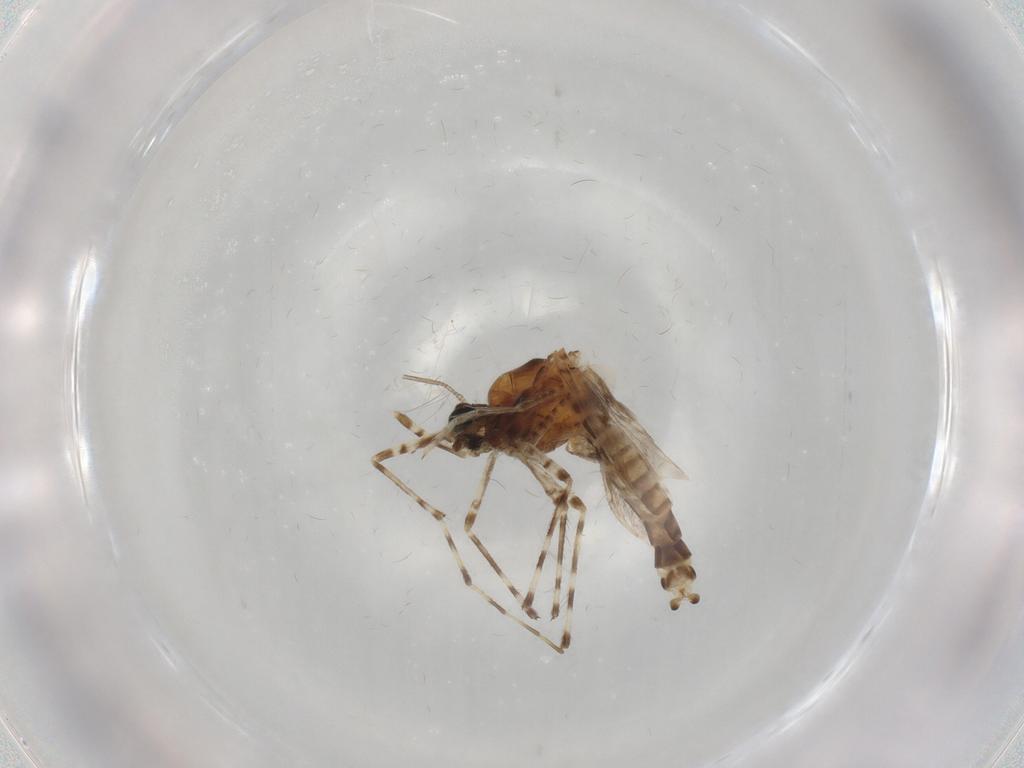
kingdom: Animalia
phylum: Arthropoda
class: Insecta
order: Diptera
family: Chironomidae
